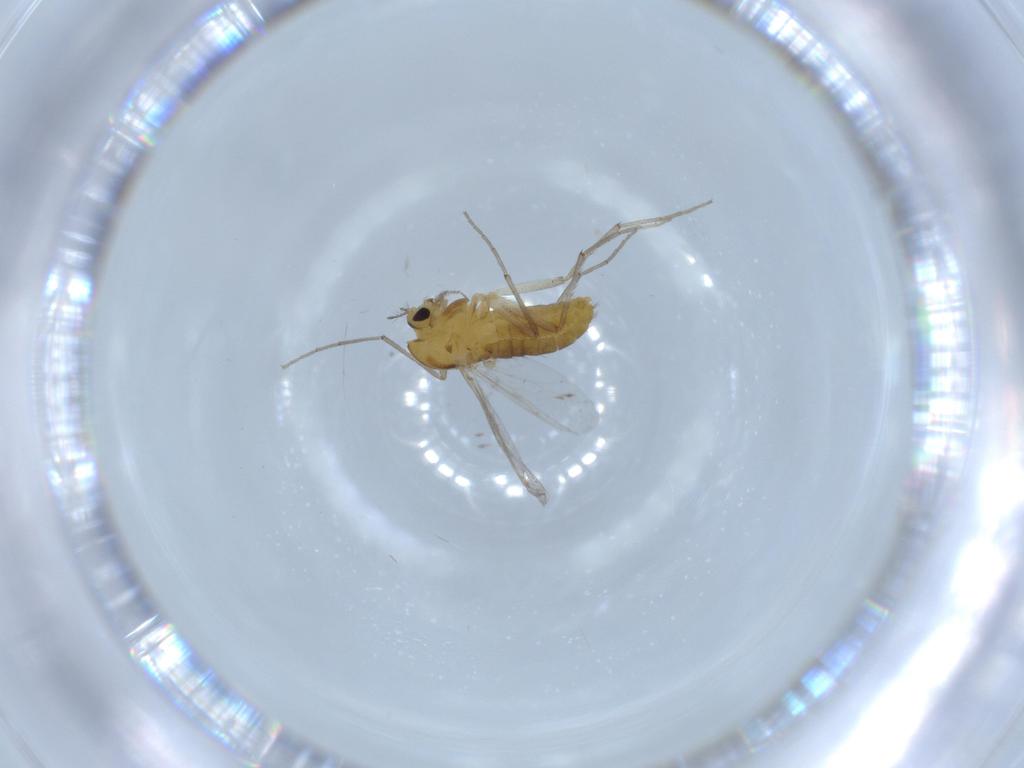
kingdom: Animalia
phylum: Arthropoda
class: Insecta
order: Diptera
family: Chironomidae
